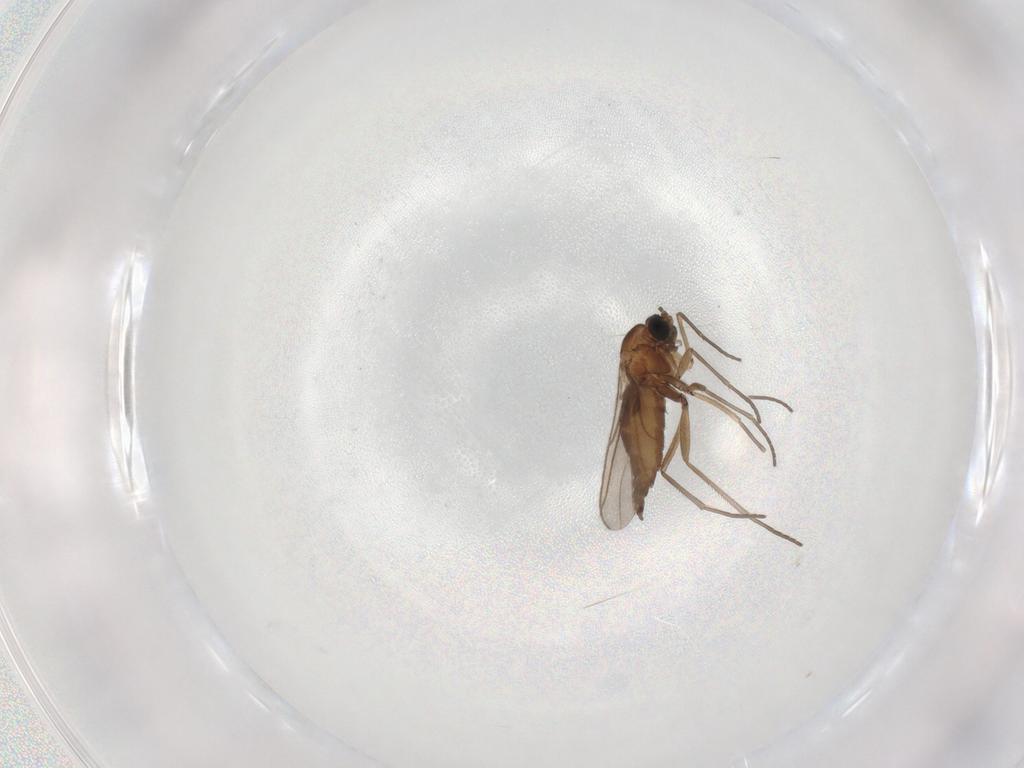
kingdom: Animalia
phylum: Arthropoda
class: Insecta
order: Diptera
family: Sciaridae
